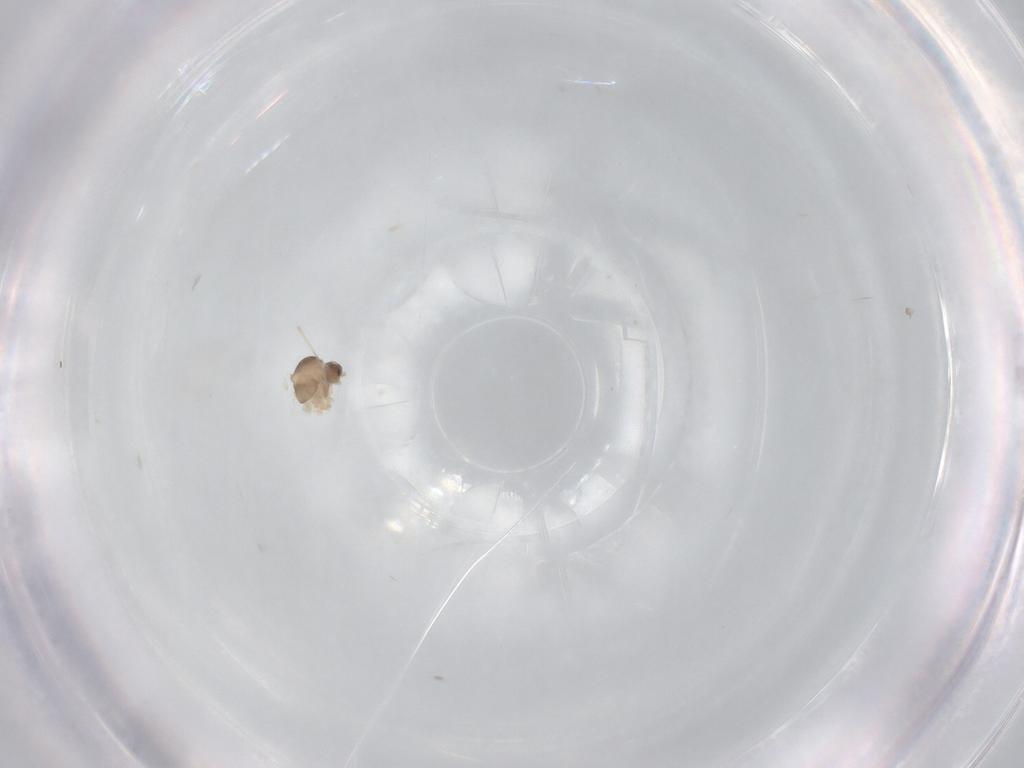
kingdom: Animalia
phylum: Arthropoda
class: Insecta
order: Diptera
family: Cecidomyiidae
